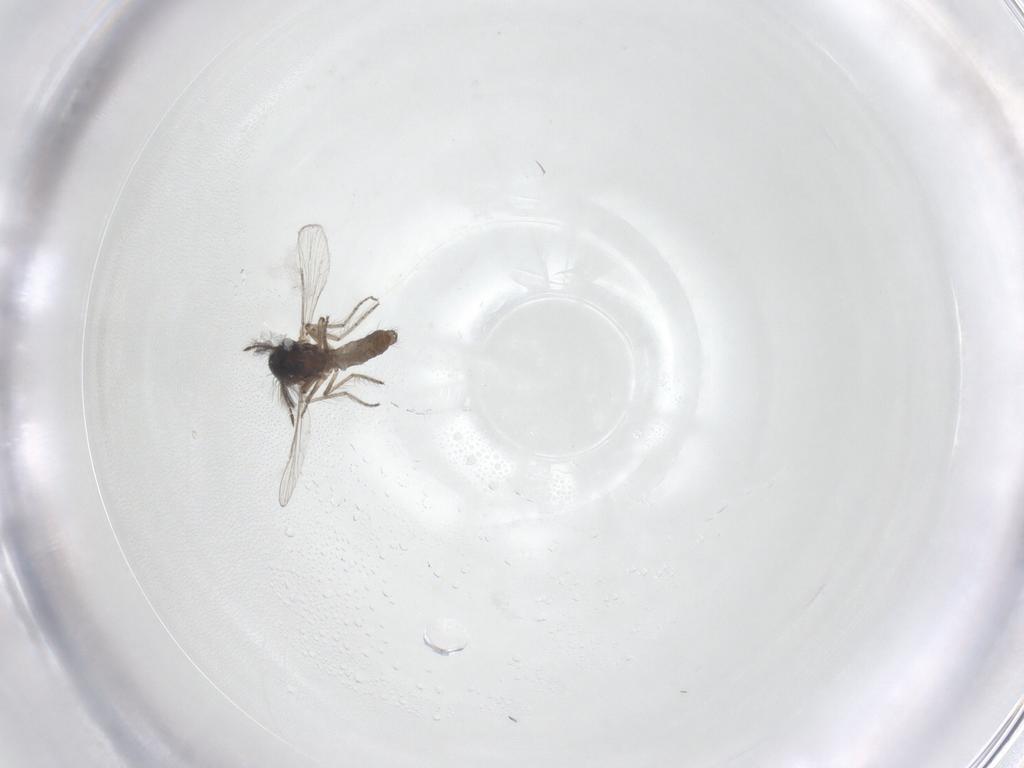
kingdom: Animalia
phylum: Arthropoda
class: Insecta
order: Diptera
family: Ceratopogonidae
